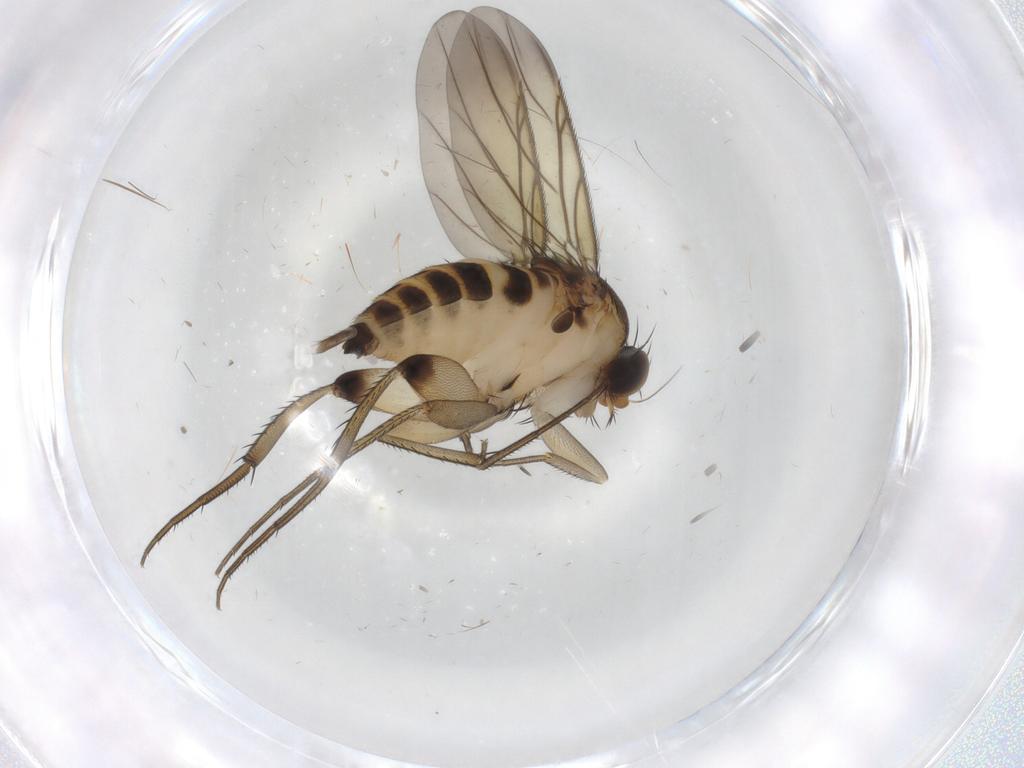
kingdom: Animalia
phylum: Arthropoda
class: Insecta
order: Diptera
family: Phoridae
